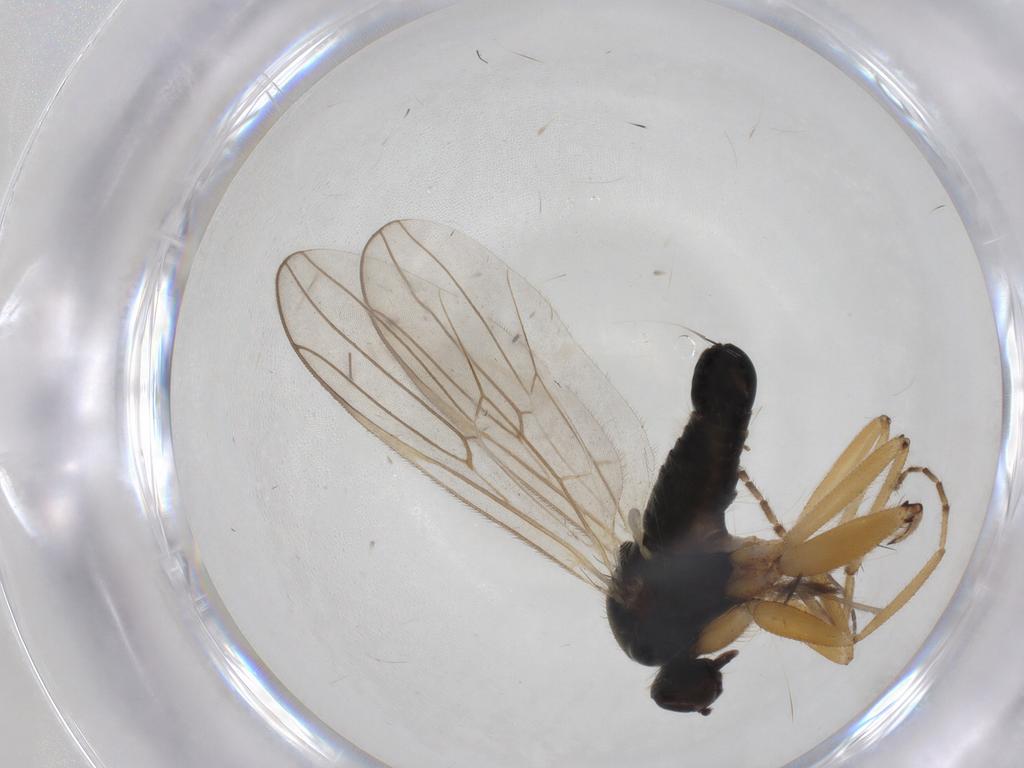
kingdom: Animalia
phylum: Arthropoda
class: Insecta
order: Diptera
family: Hybotidae
